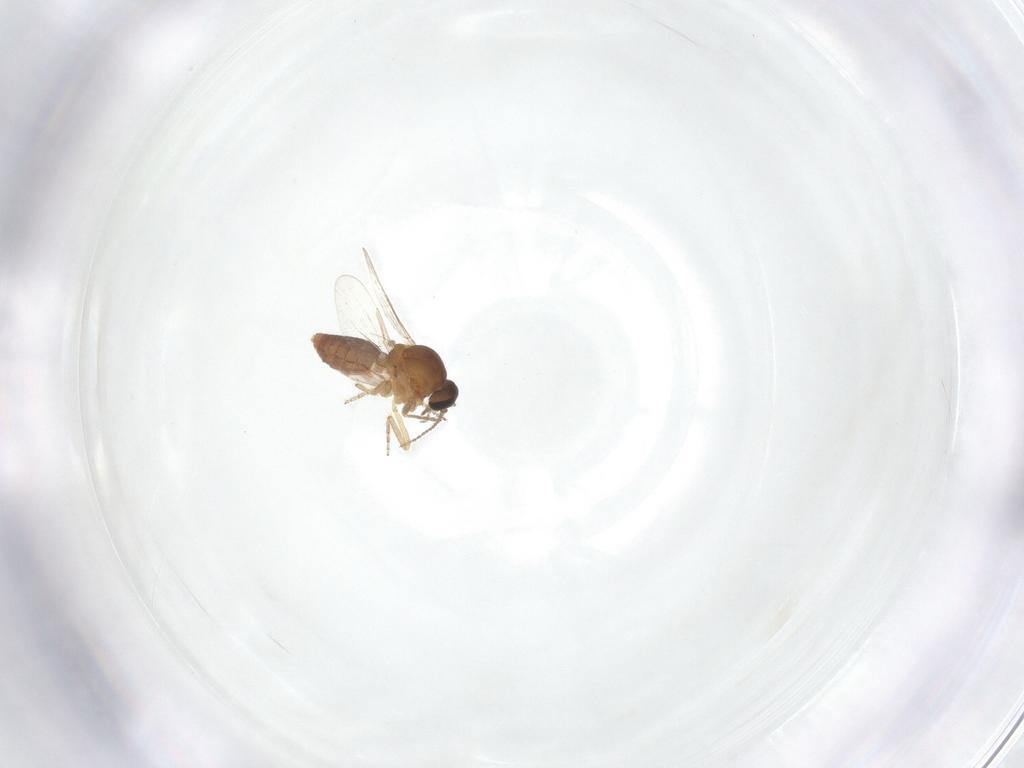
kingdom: Animalia
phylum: Arthropoda
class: Insecta
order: Diptera
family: Ceratopogonidae
